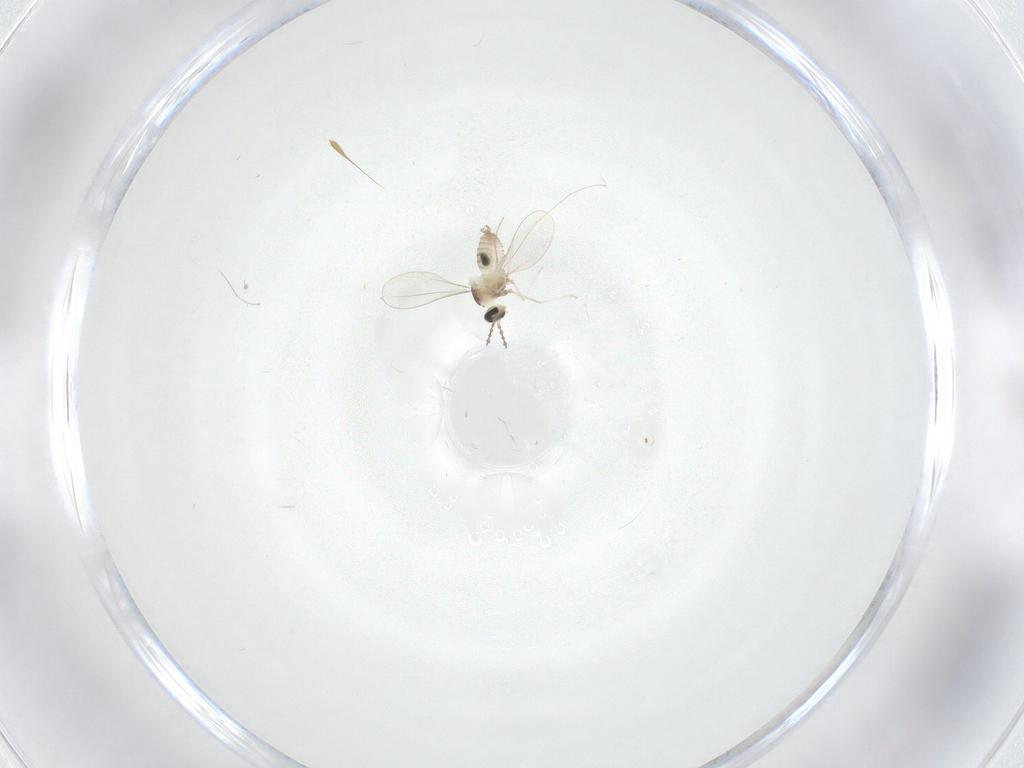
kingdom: Animalia
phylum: Arthropoda
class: Insecta
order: Diptera
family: Cecidomyiidae
